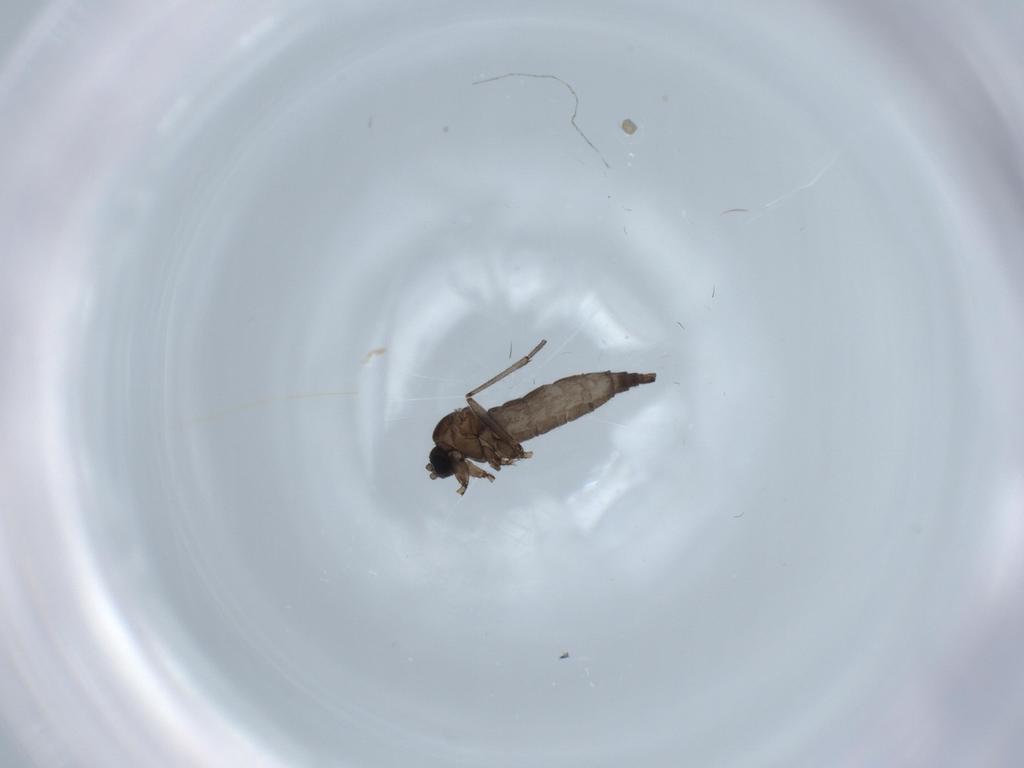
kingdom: Animalia
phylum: Arthropoda
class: Insecta
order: Diptera
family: Sciaridae
